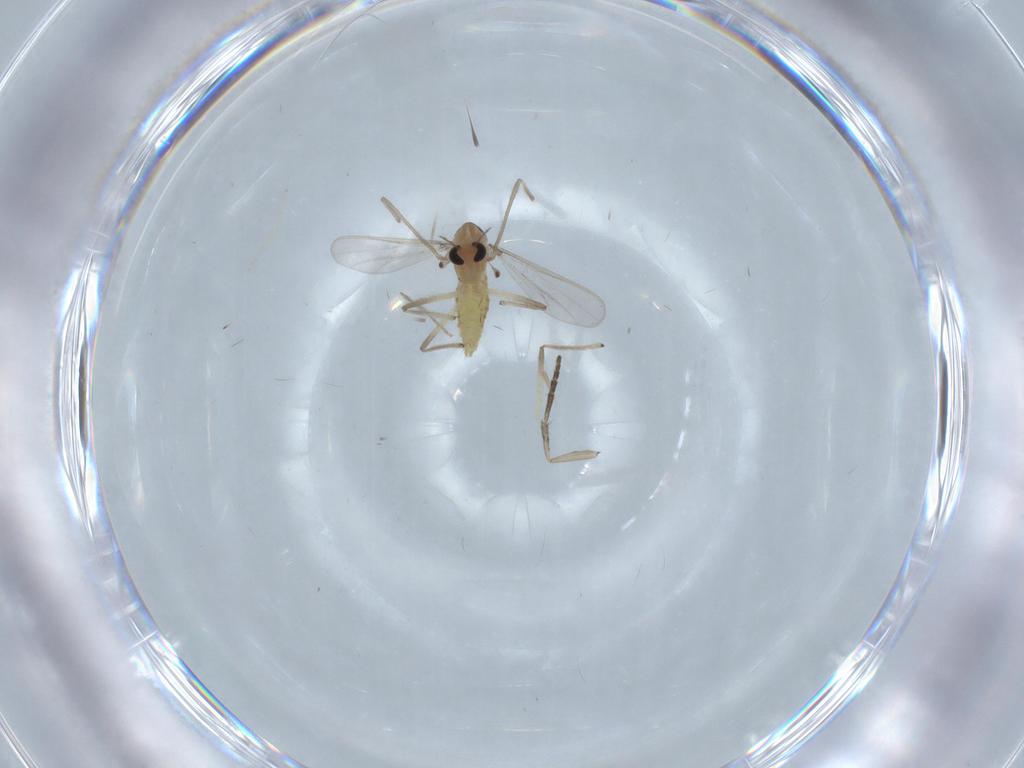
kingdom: Animalia
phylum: Arthropoda
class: Insecta
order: Diptera
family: Chironomidae
